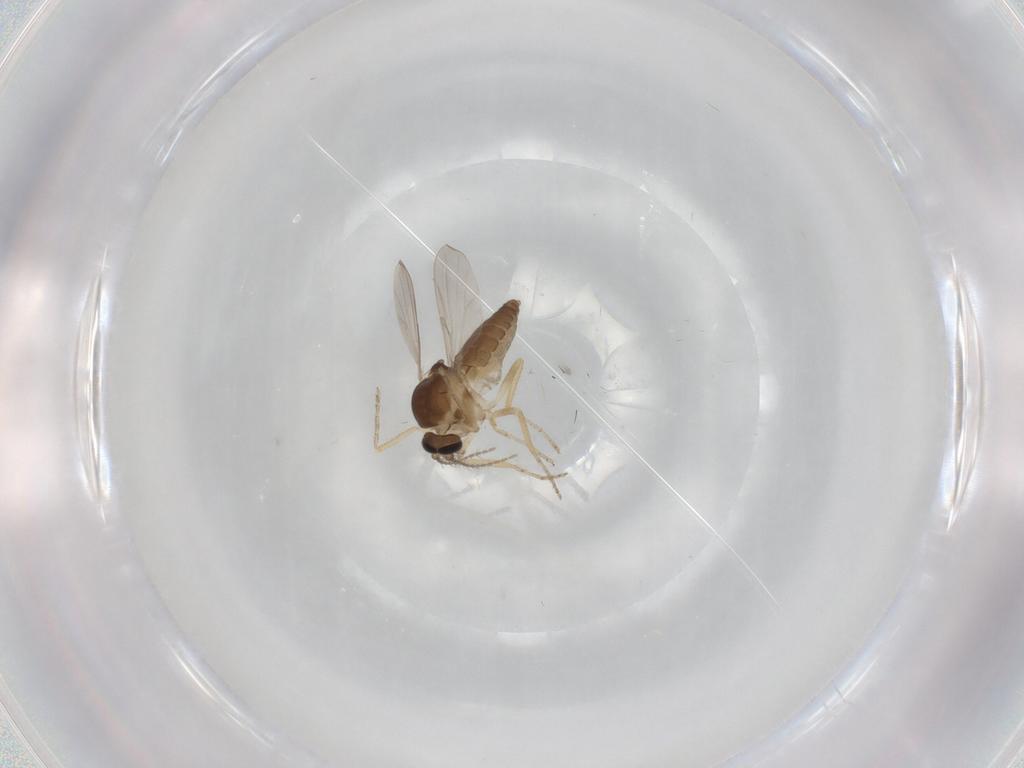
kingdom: Animalia
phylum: Arthropoda
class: Insecta
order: Diptera
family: Ceratopogonidae
